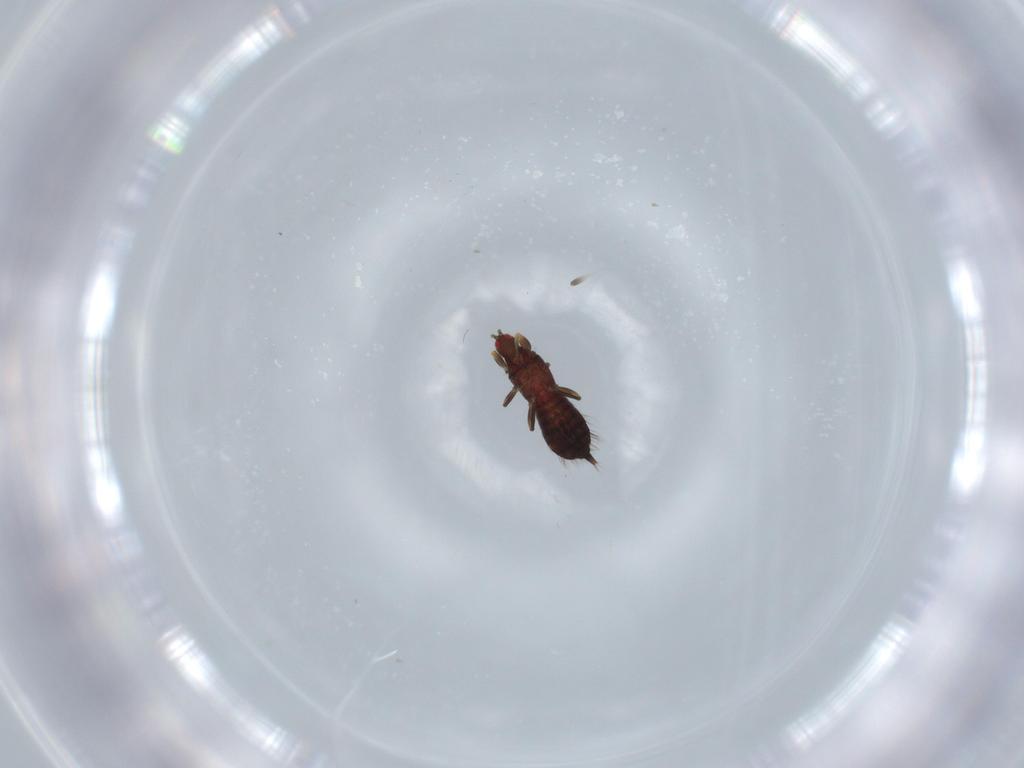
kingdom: Animalia
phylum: Arthropoda
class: Insecta
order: Thysanoptera
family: Phlaeothripidae
